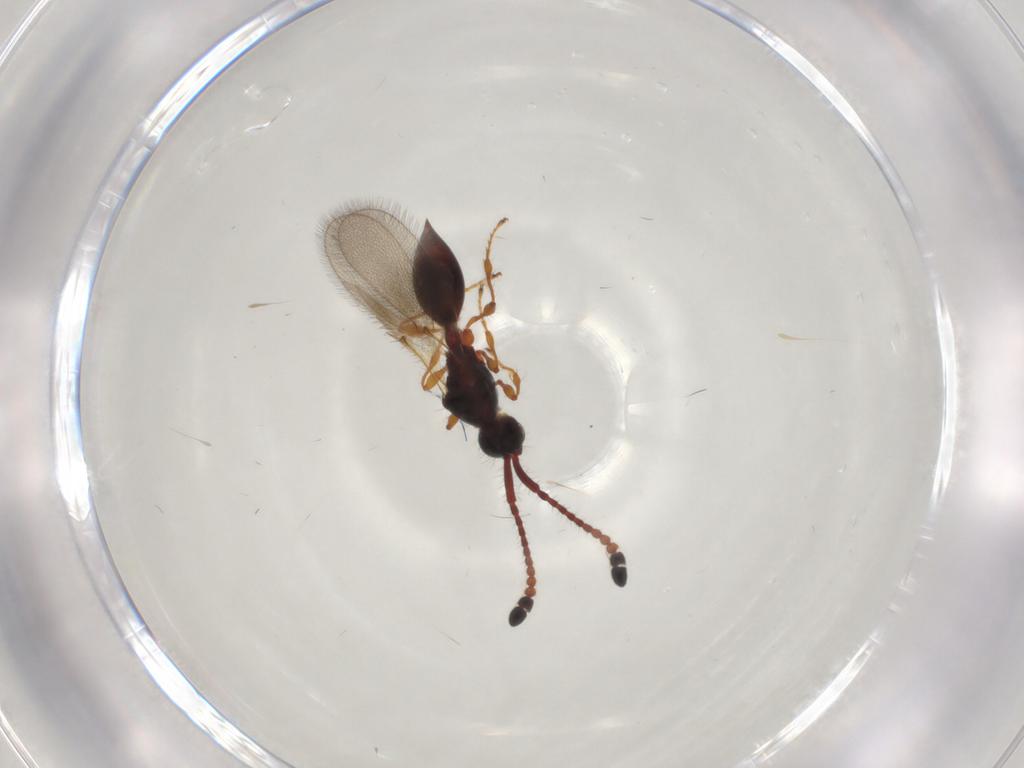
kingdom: Animalia
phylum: Arthropoda
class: Insecta
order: Hymenoptera
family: Diapriidae
